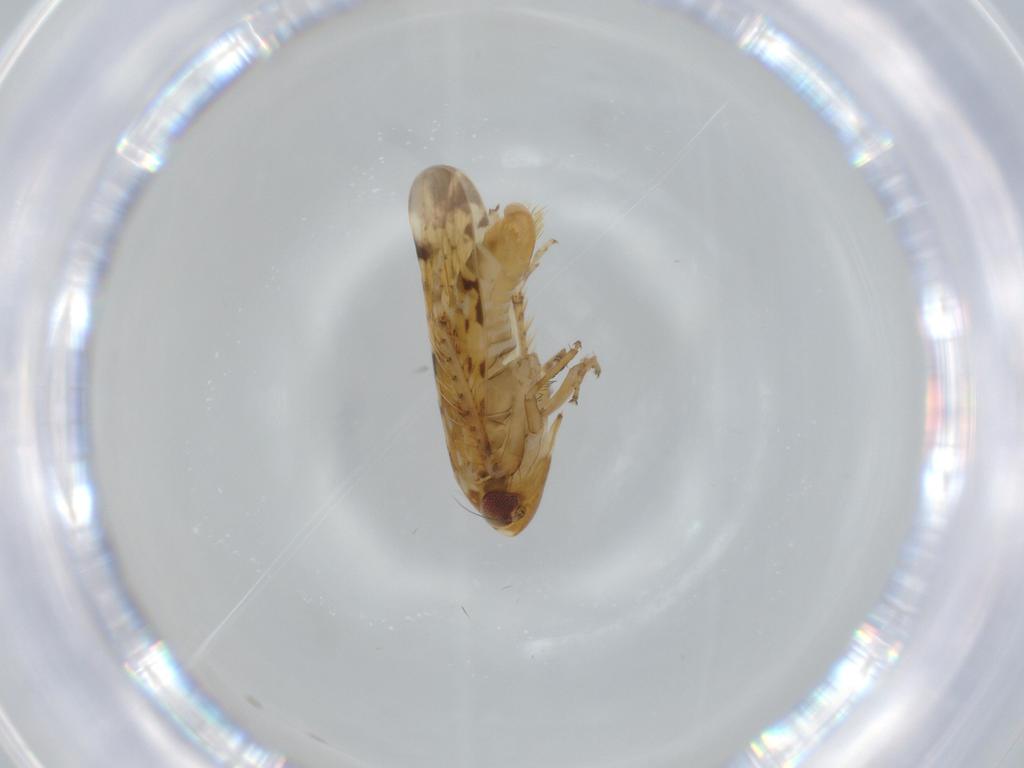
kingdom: Animalia
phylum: Arthropoda
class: Insecta
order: Hemiptera
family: Cicadellidae
